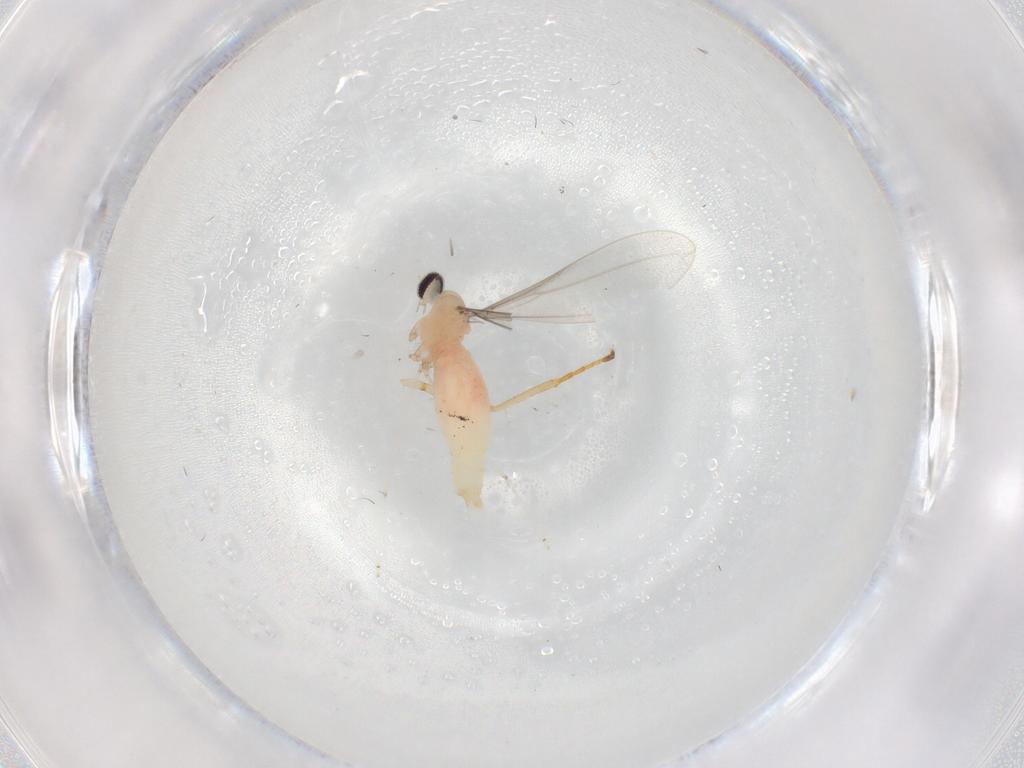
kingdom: Animalia
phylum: Arthropoda
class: Insecta
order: Diptera
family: Cecidomyiidae
